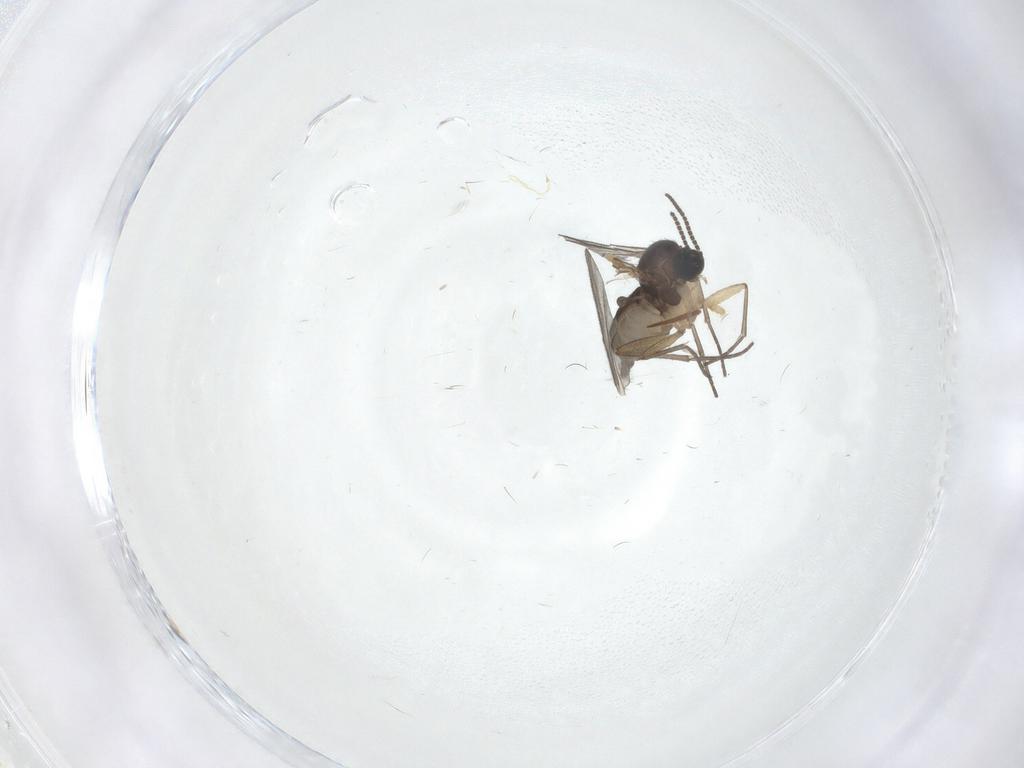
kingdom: Animalia
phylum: Arthropoda
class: Insecta
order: Diptera
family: Sciaridae
